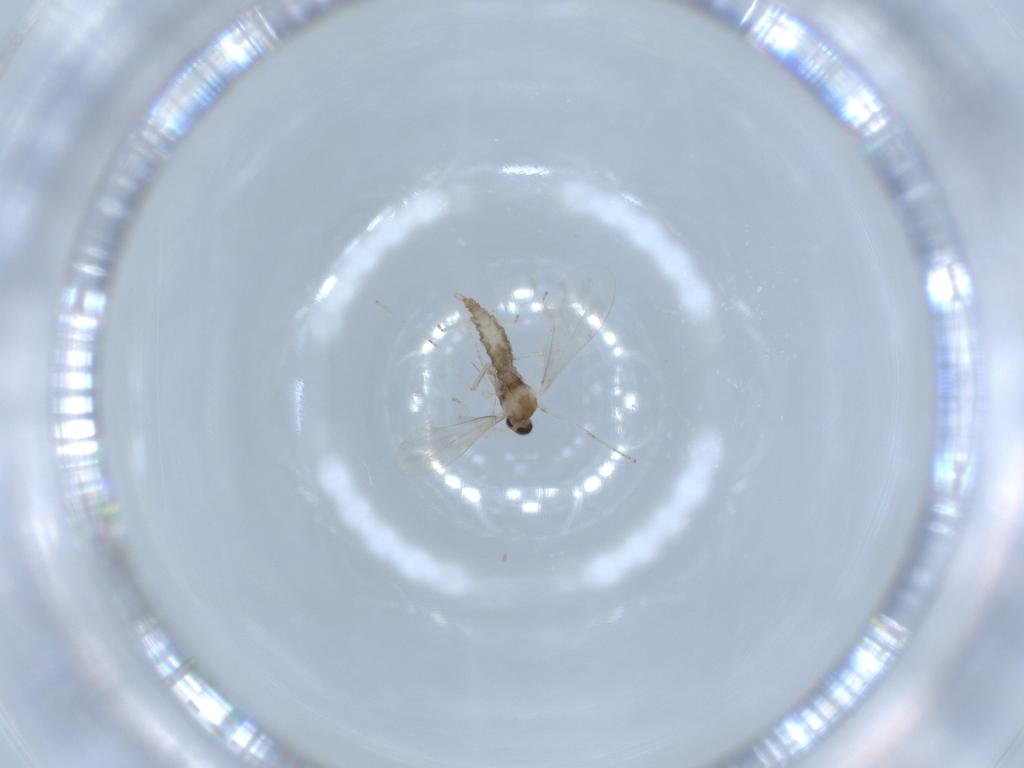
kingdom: Animalia
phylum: Arthropoda
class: Insecta
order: Diptera
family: Cecidomyiidae
